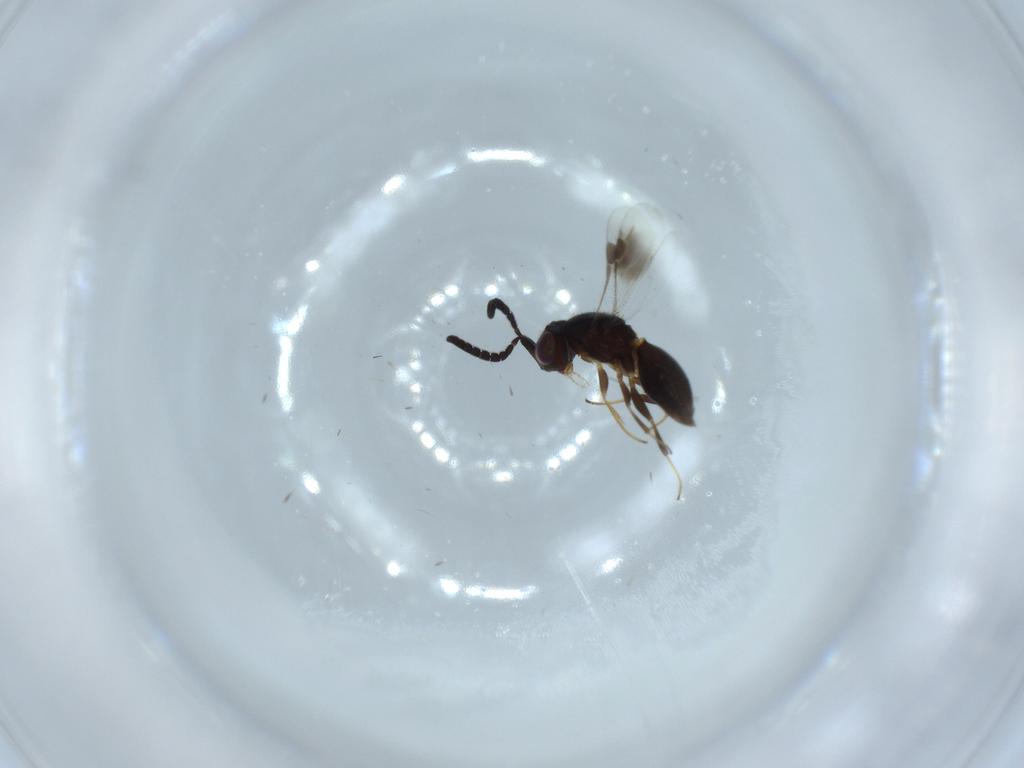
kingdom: Animalia
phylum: Arthropoda
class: Insecta
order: Hymenoptera
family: Megaspilidae
